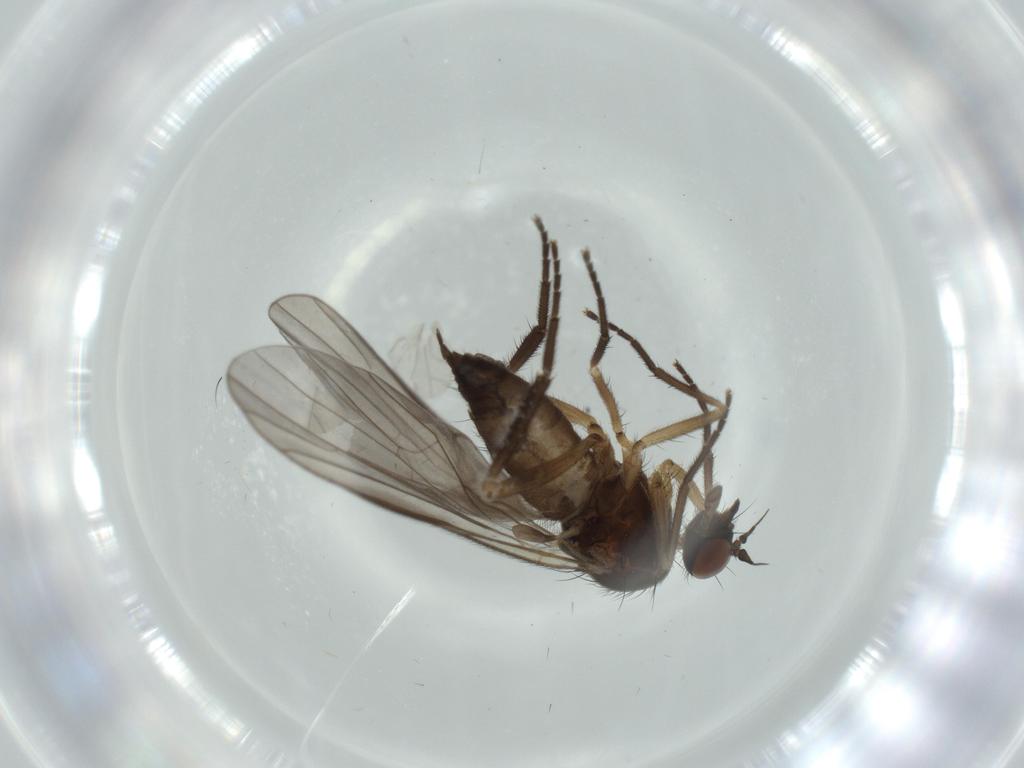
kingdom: Animalia
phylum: Arthropoda
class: Insecta
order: Diptera
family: Empididae
